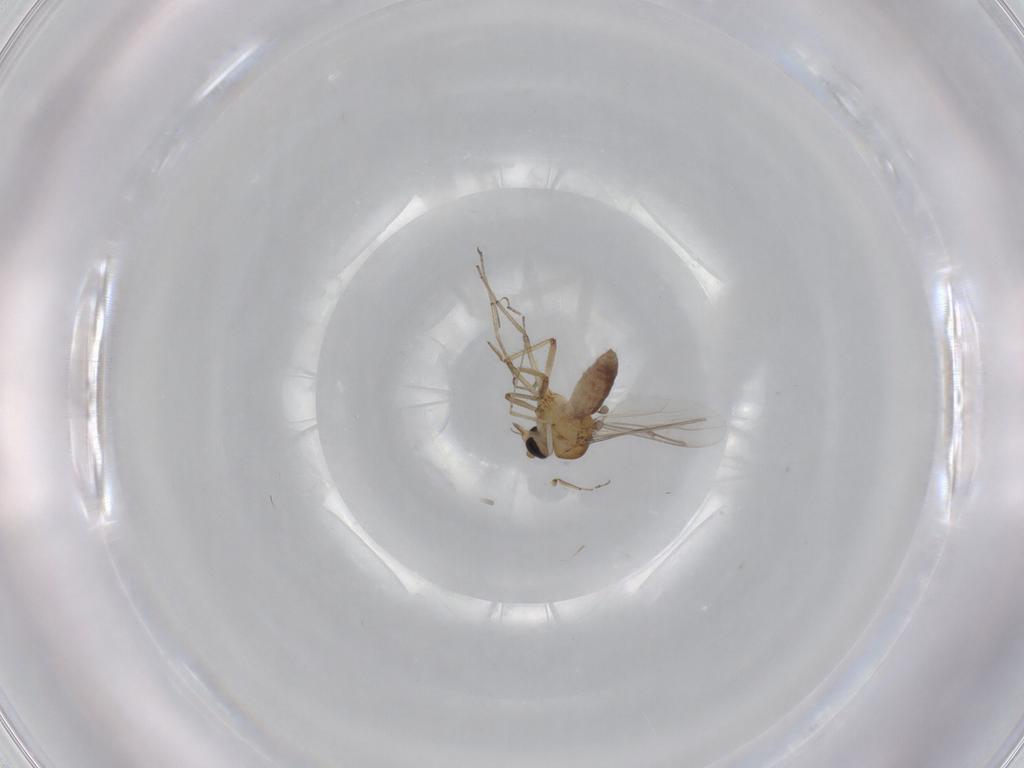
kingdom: Animalia
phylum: Arthropoda
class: Insecta
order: Diptera
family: Cecidomyiidae
